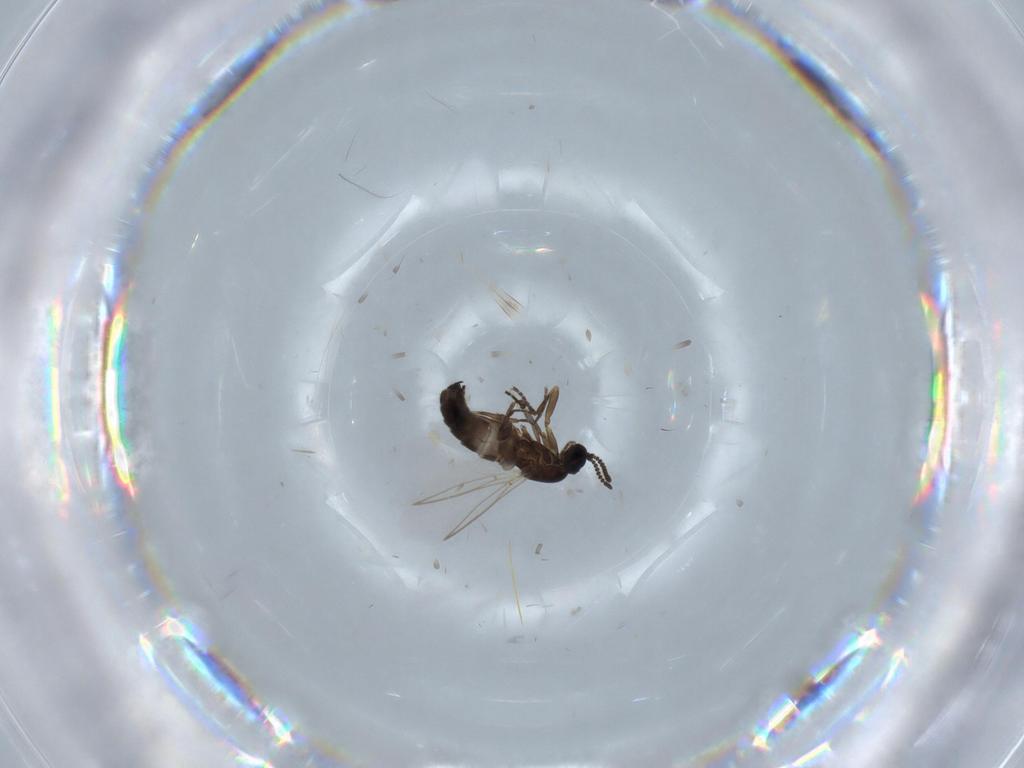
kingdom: Animalia
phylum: Arthropoda
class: Insecta
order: Diptera
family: Scatopsidae
